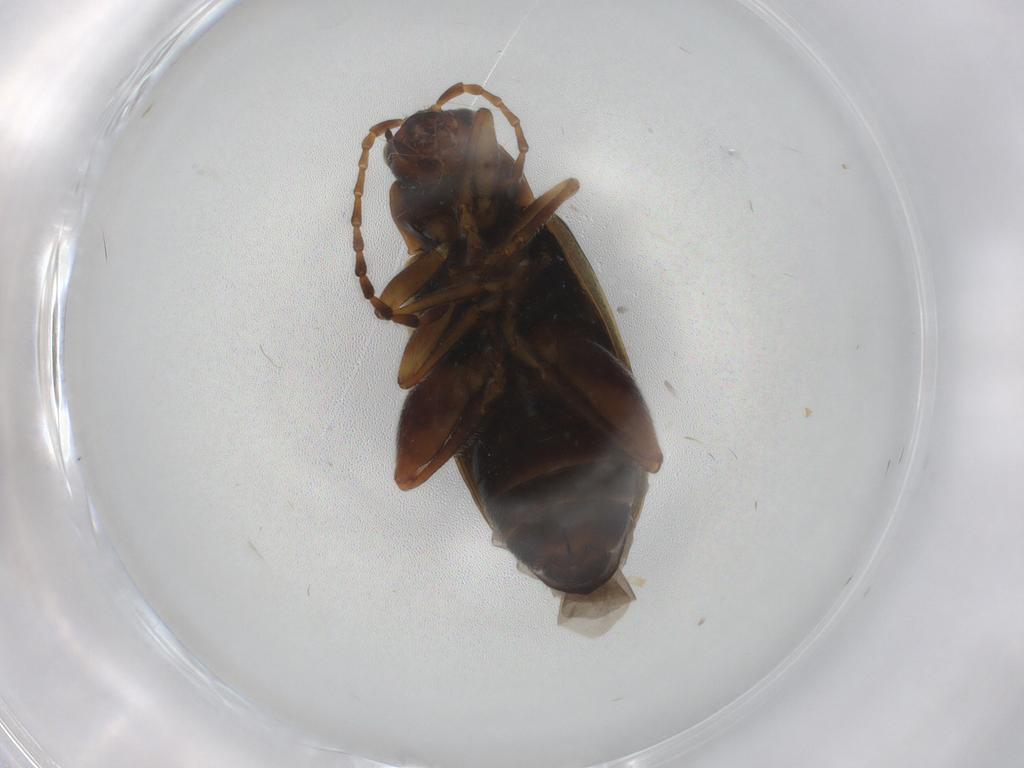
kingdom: Animalia
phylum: Arthropoda
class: Insecta
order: Coleoptera
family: Chrysomelidae
